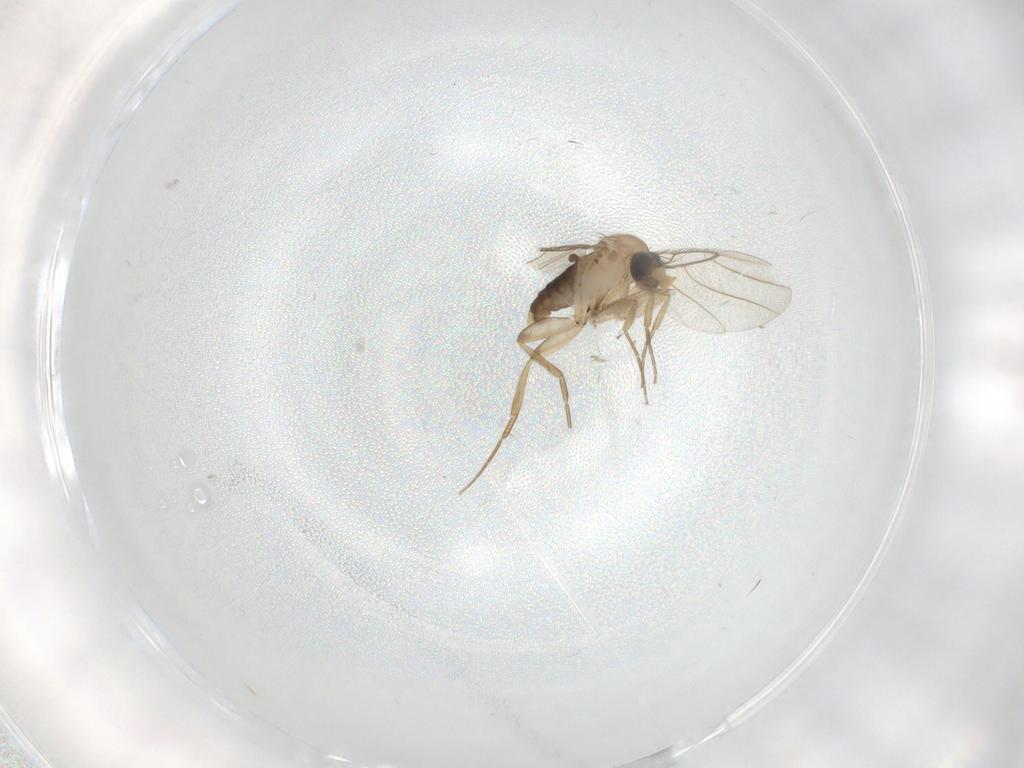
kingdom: Animalia
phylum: Arthropoda
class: Insecta
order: Diptera
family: Phoridae
